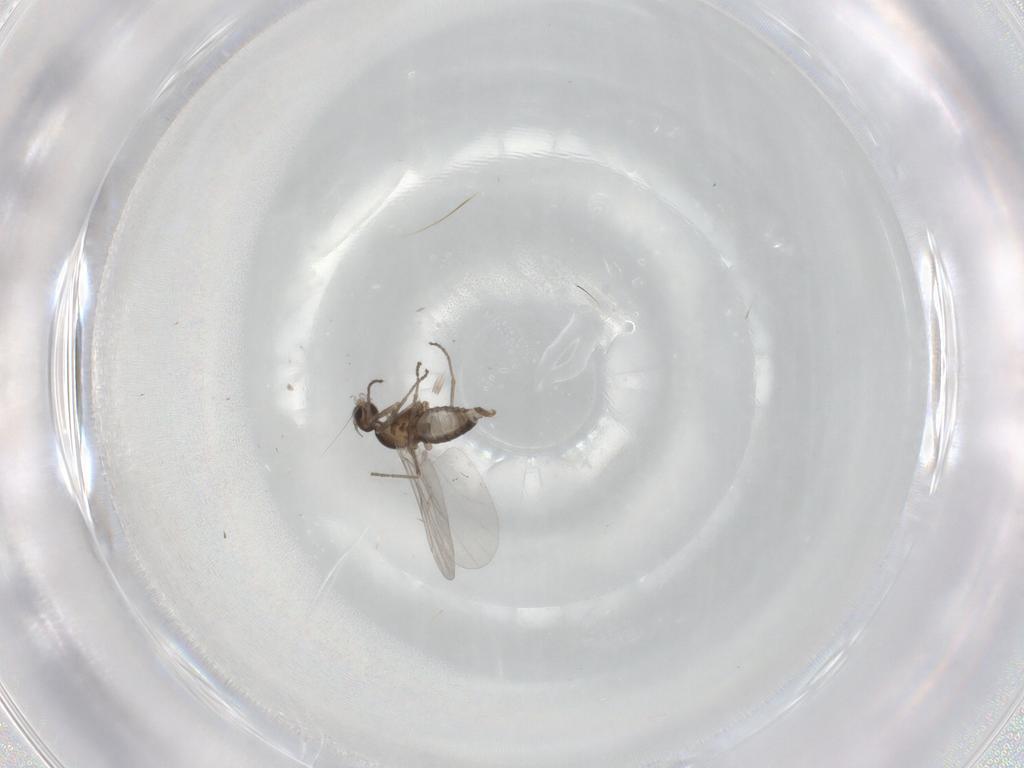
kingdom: Animalia
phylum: Arthropoda
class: Insecta
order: Diptera
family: Cecidomyiidae
